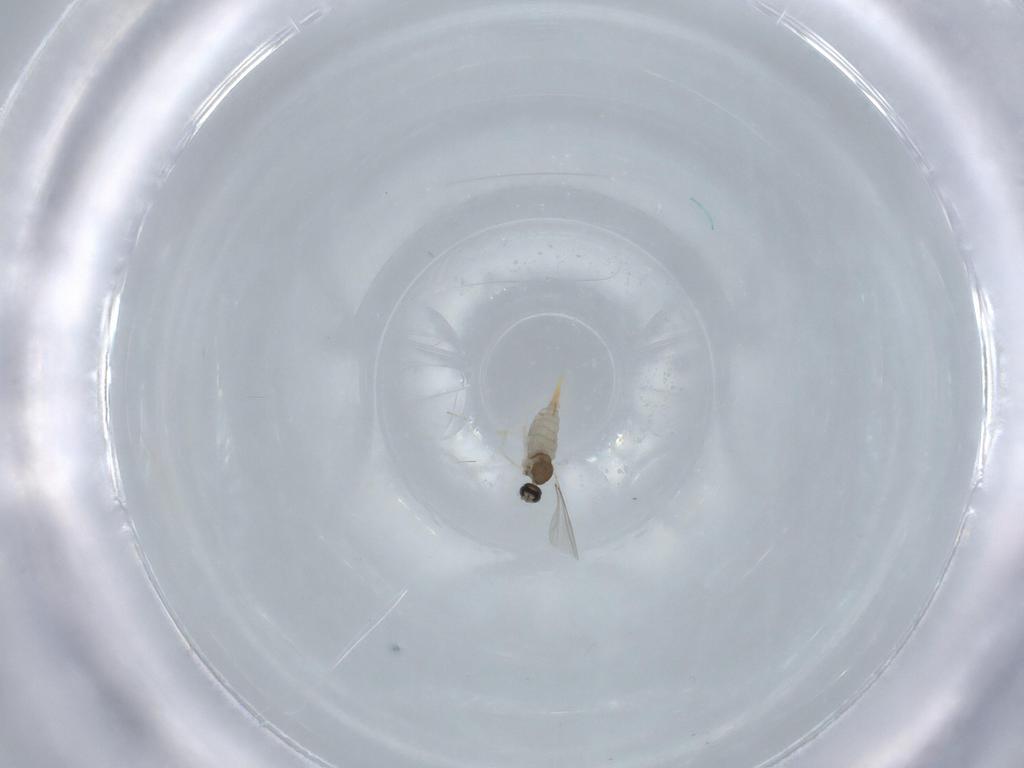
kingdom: Animalia
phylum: Arthropoda
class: Insecta
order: Diptera
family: Cecidomyiidae
